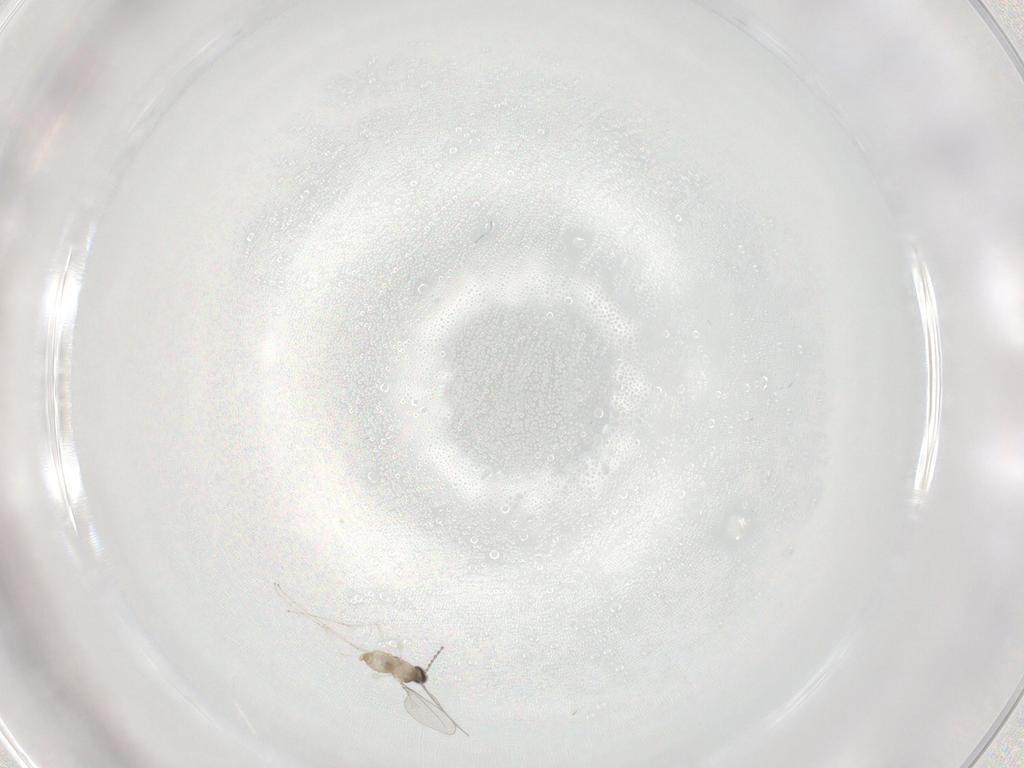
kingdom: Animalia
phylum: Arthropoda
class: Insecta
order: Diptera
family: Cecidomyiidae
